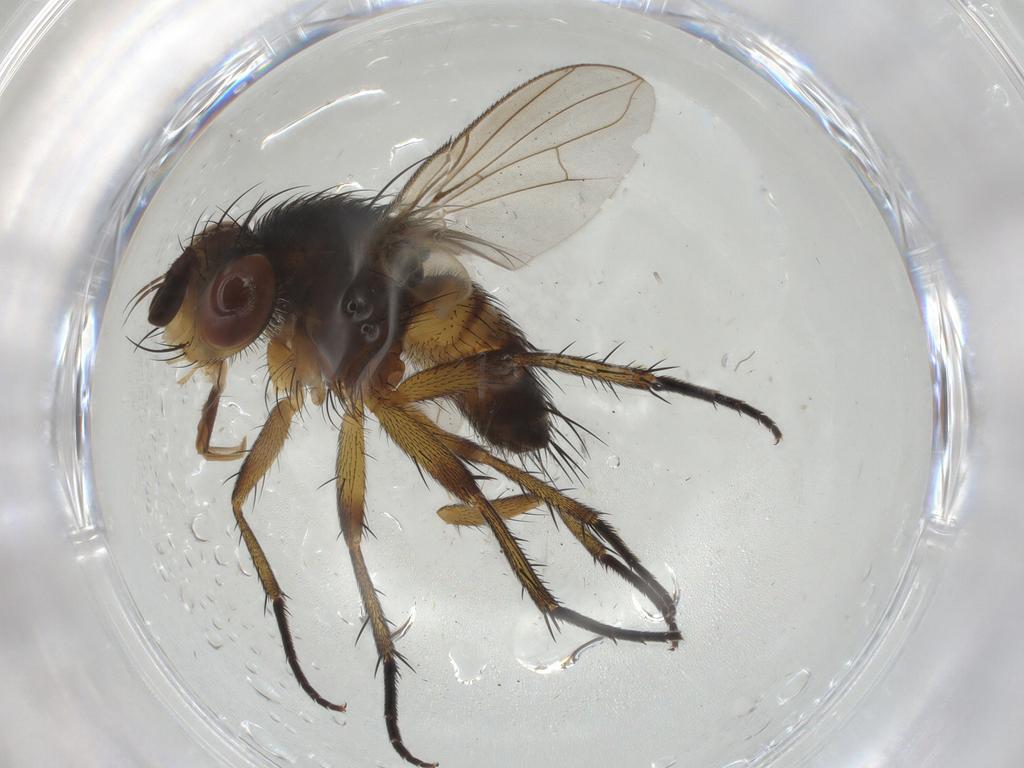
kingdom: Animalia
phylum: Arthropoda
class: Insecta
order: Diptera
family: Tachinidae
